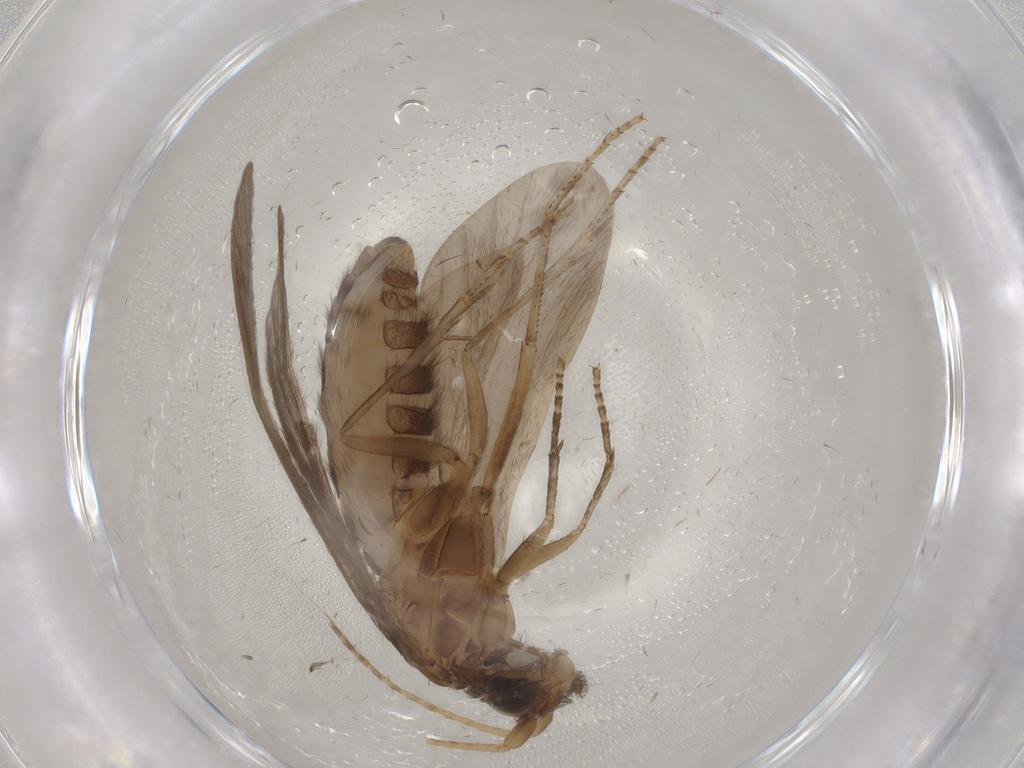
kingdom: Animalia
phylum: Arthropoda
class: Insecta
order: Trichoptera
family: Helicopsychidae
